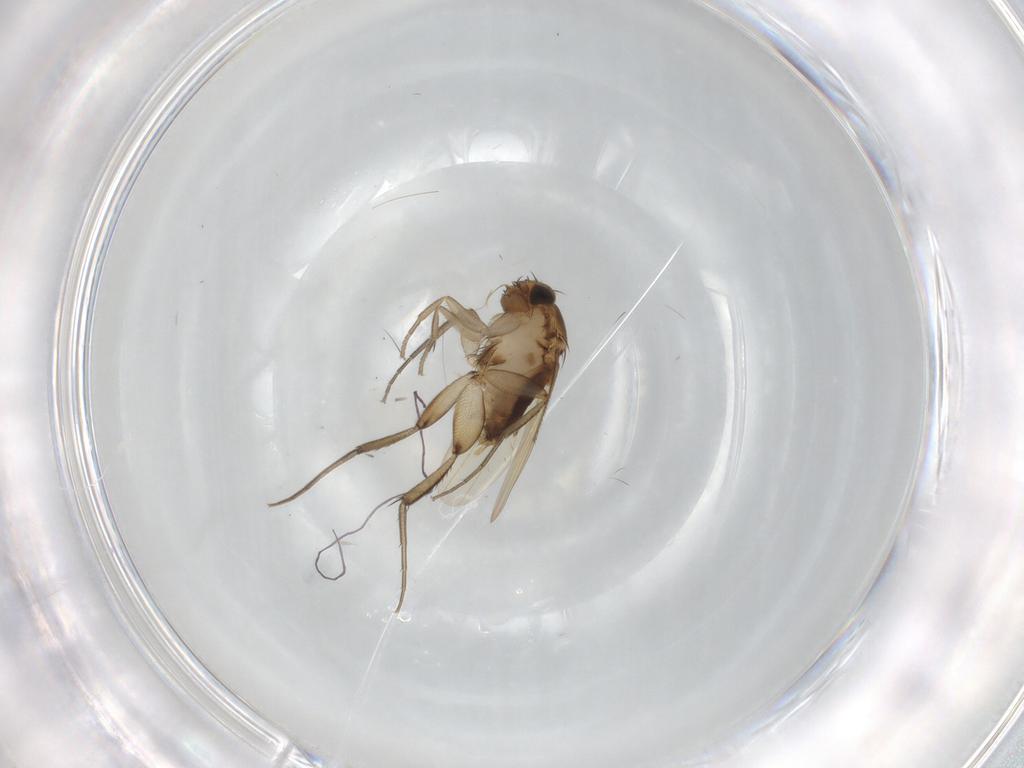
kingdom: Animalia
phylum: Arthropoda
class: Insecta
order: Diptera
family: Phoridae
